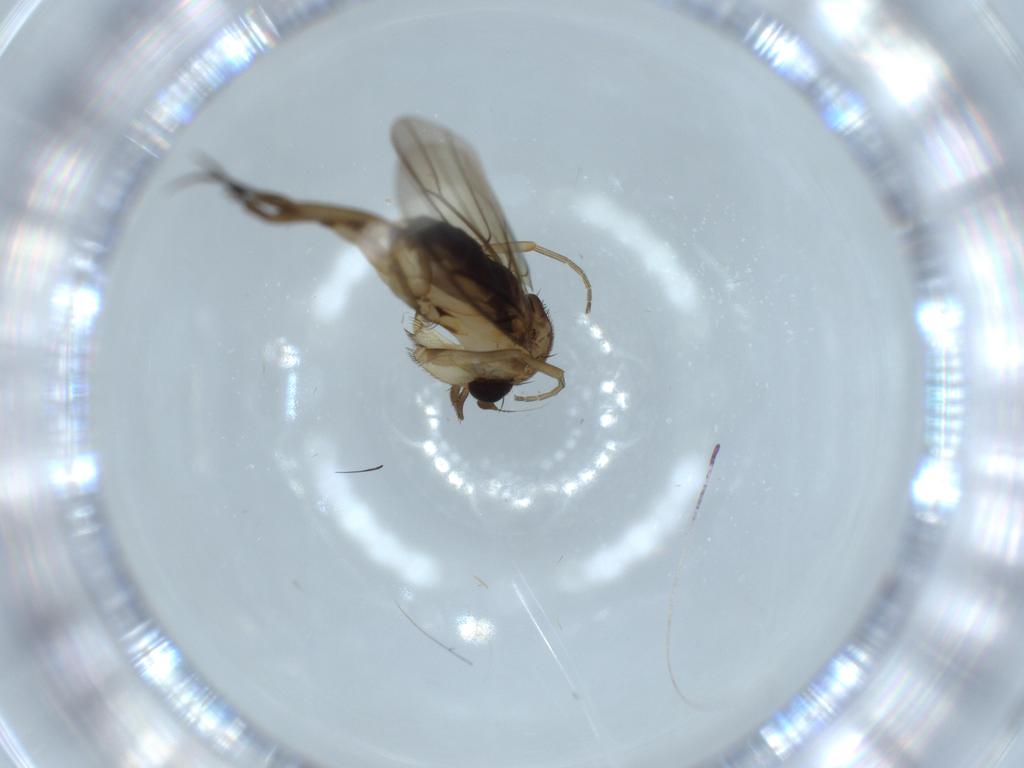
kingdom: Animalia
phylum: Arthropoda
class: Insecta
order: Diptera
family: Phoridae
